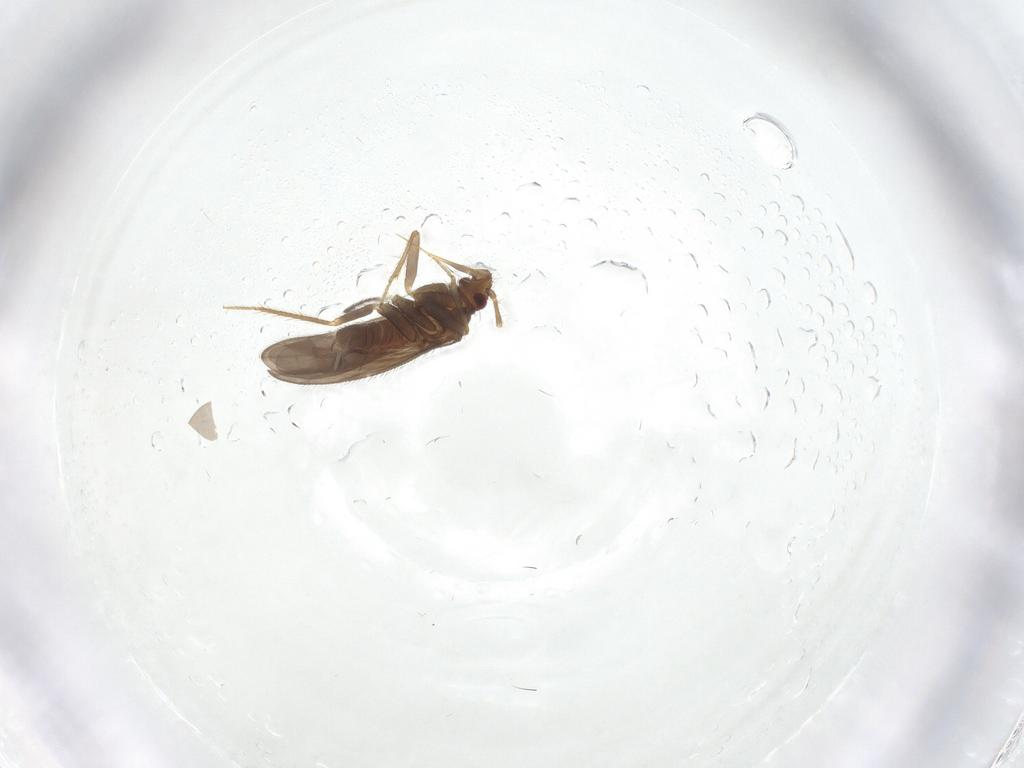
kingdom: Animalia
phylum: Arthropoda
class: Insecta
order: Hemiptera
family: Ceratocombidae
